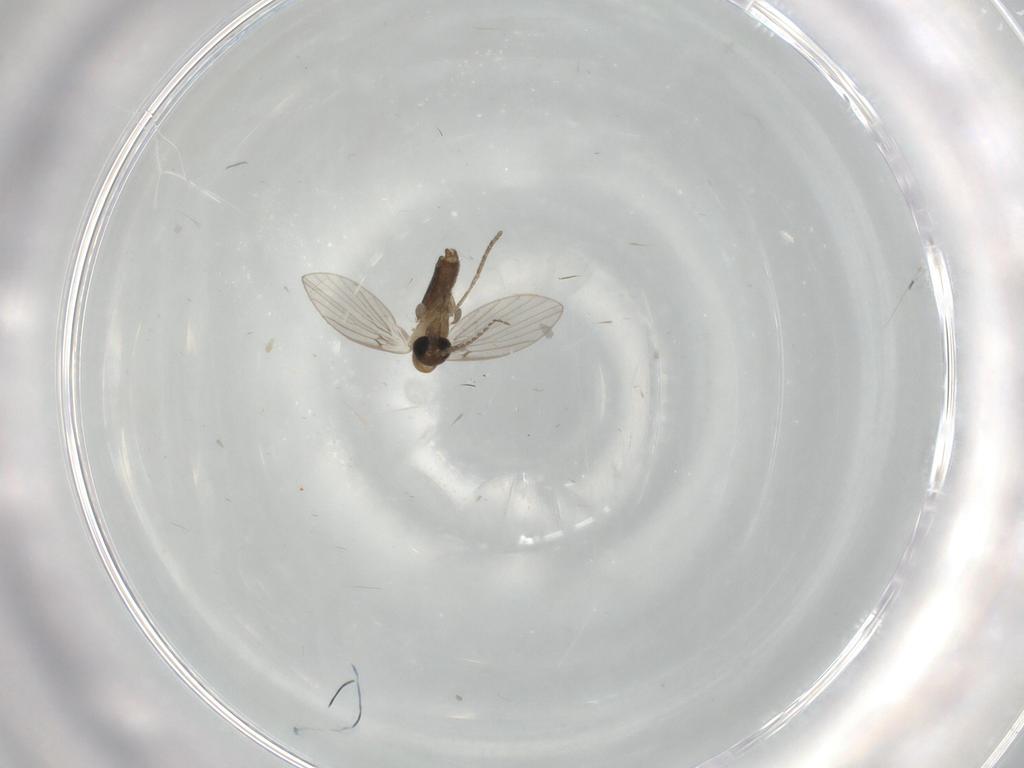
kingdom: Animalia
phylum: Arthropoda
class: Insecta
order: Diptera
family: Psychodidae
